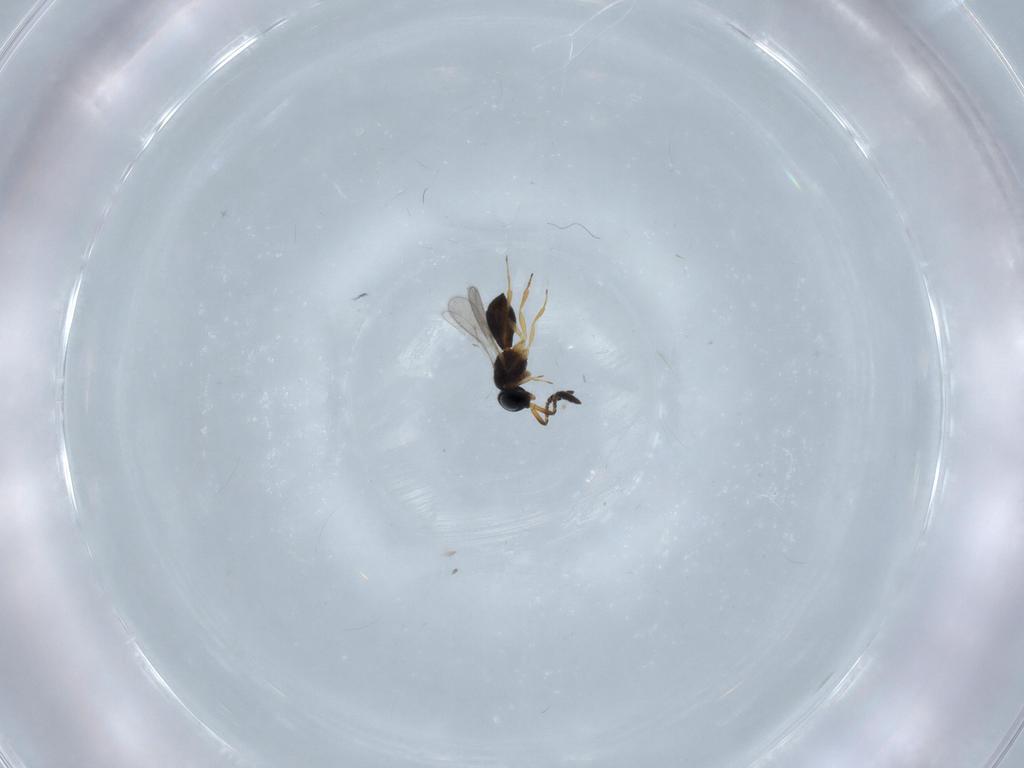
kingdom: Animalia
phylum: Arthropoda
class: Insecta
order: Hymenoptera
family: Scelionidae
